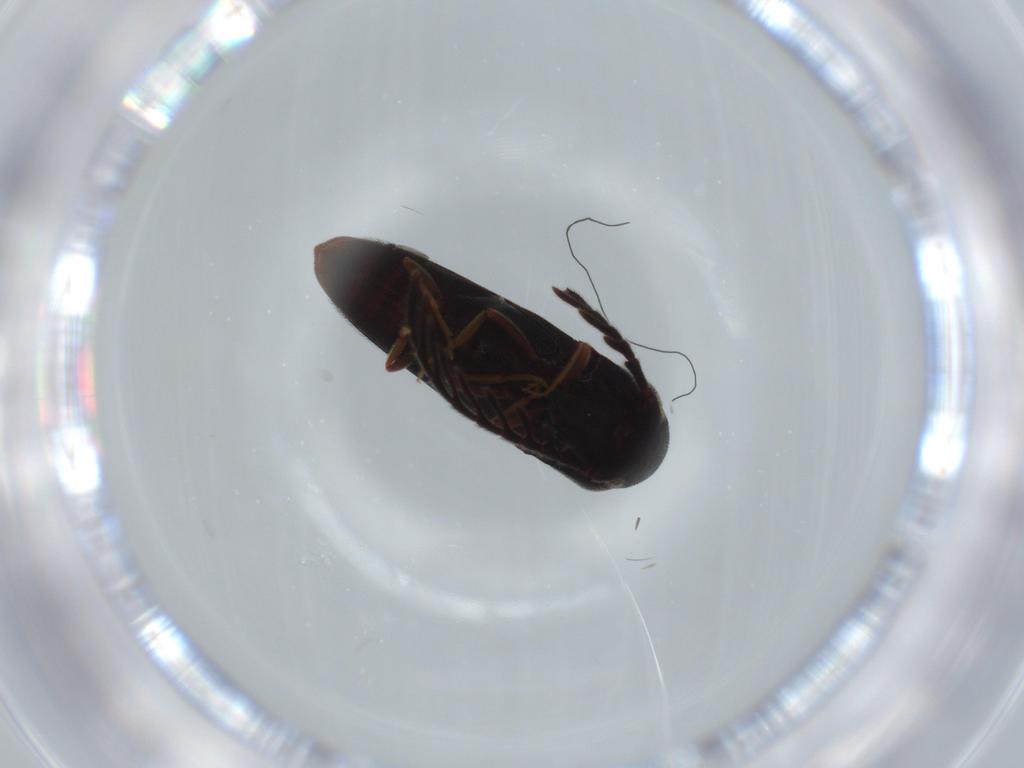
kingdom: Animalia
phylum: Arthropoda
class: Insecta
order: Coleoptera
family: Eucnemidae
